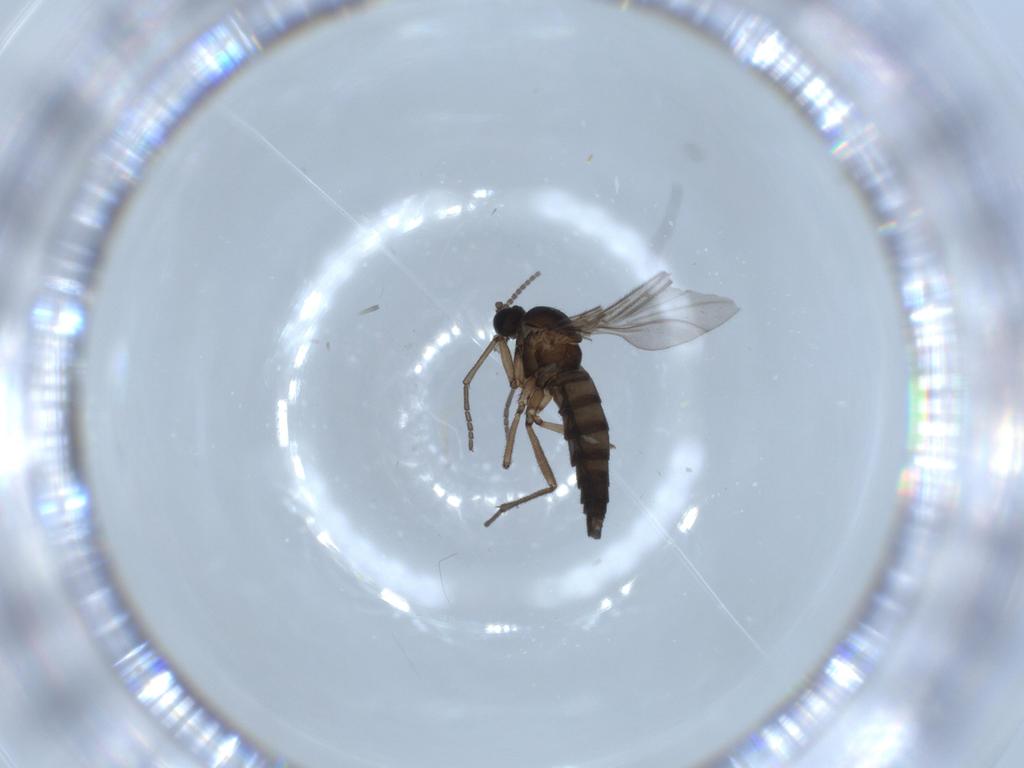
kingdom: Animalia
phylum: Arthropoda
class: Insecta
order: Diptera
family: Sciaridae
